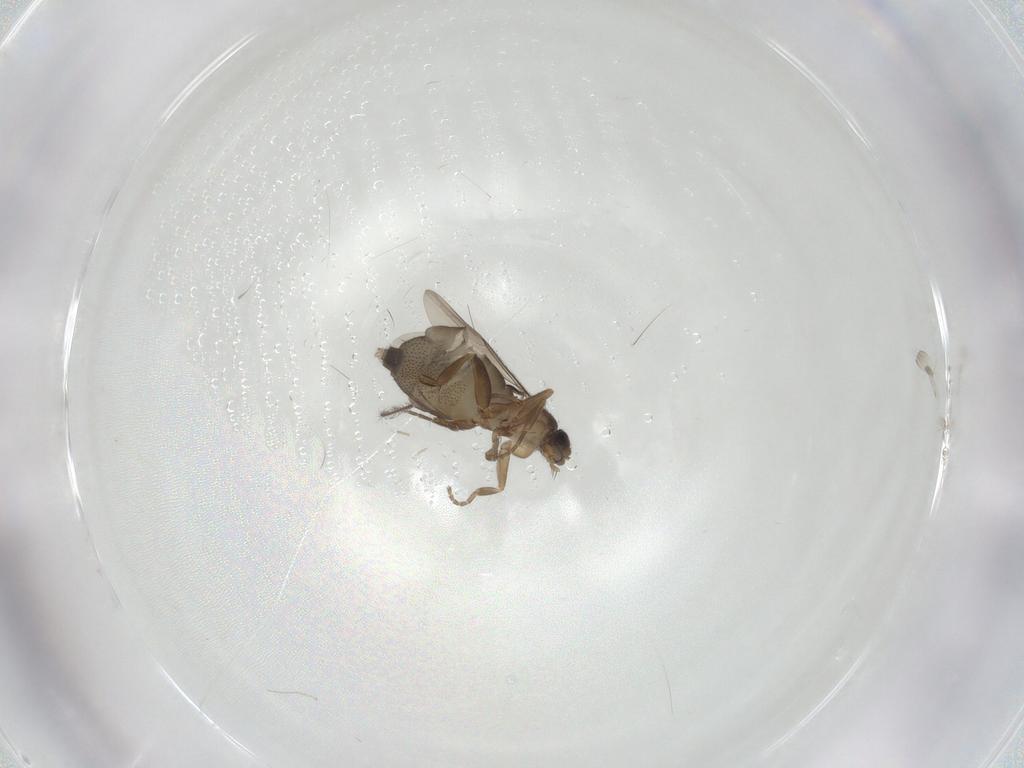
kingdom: Animalia
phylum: Arthropoda
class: Insecta
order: Diptera
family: Phoridae
